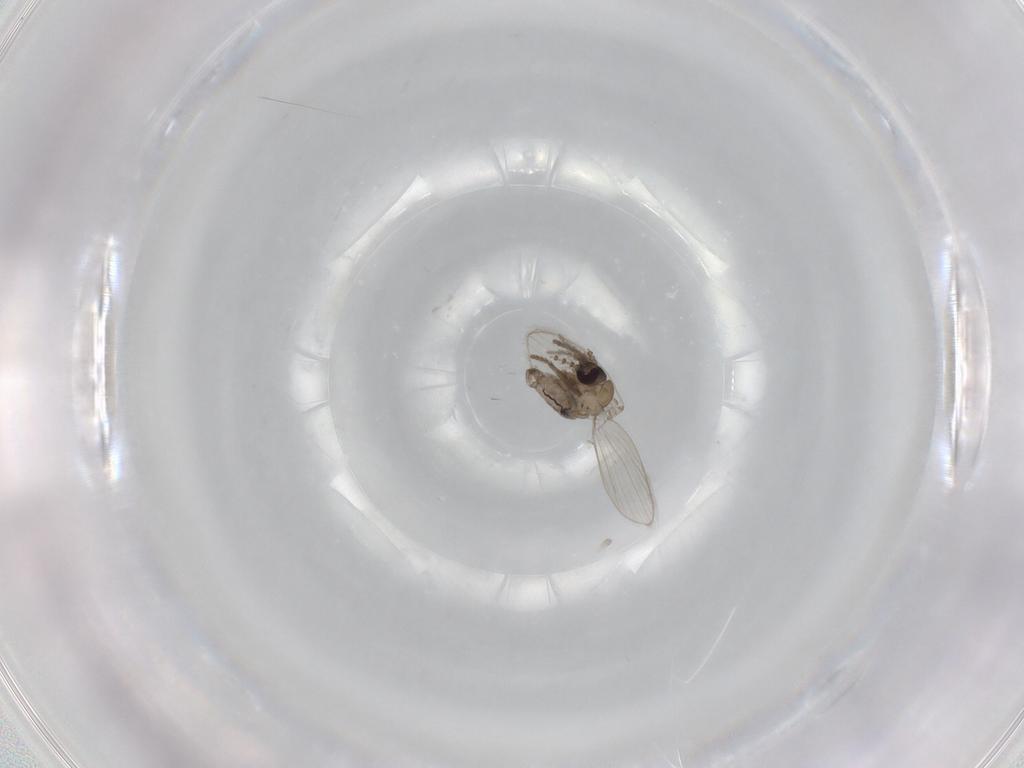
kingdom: Animalia
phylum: Arthropoda
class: Insecta
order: Diptera
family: Psychodidae
